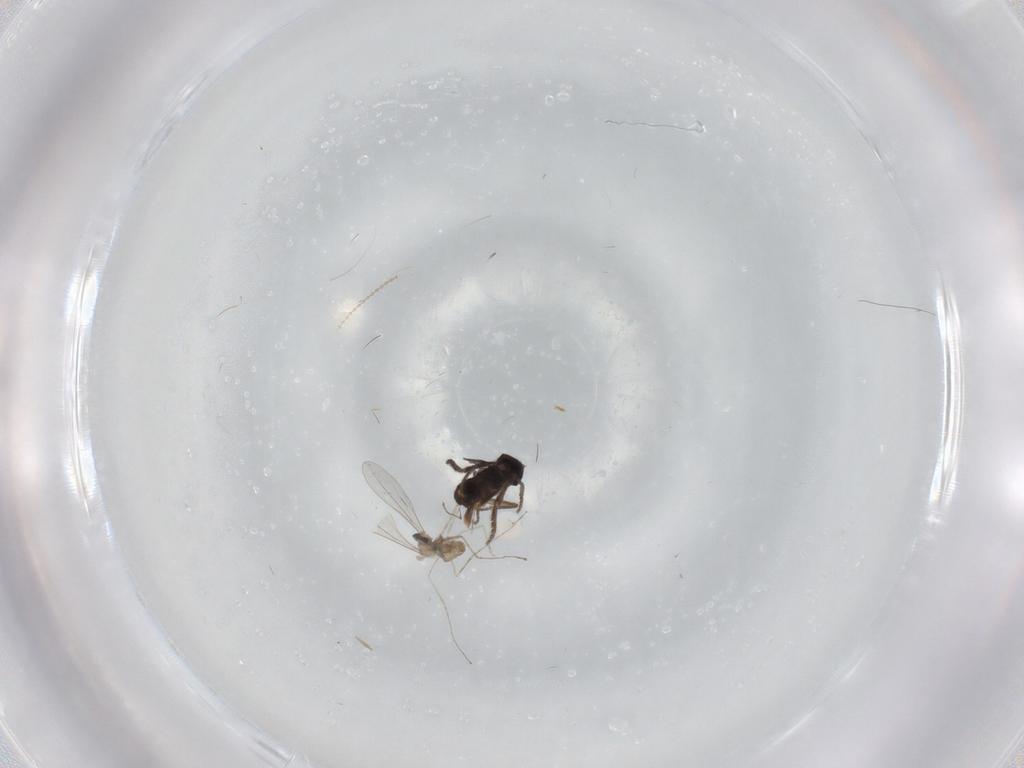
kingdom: Animalia
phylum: Arthropoda
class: Insecta
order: Diptera
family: Phoridae
